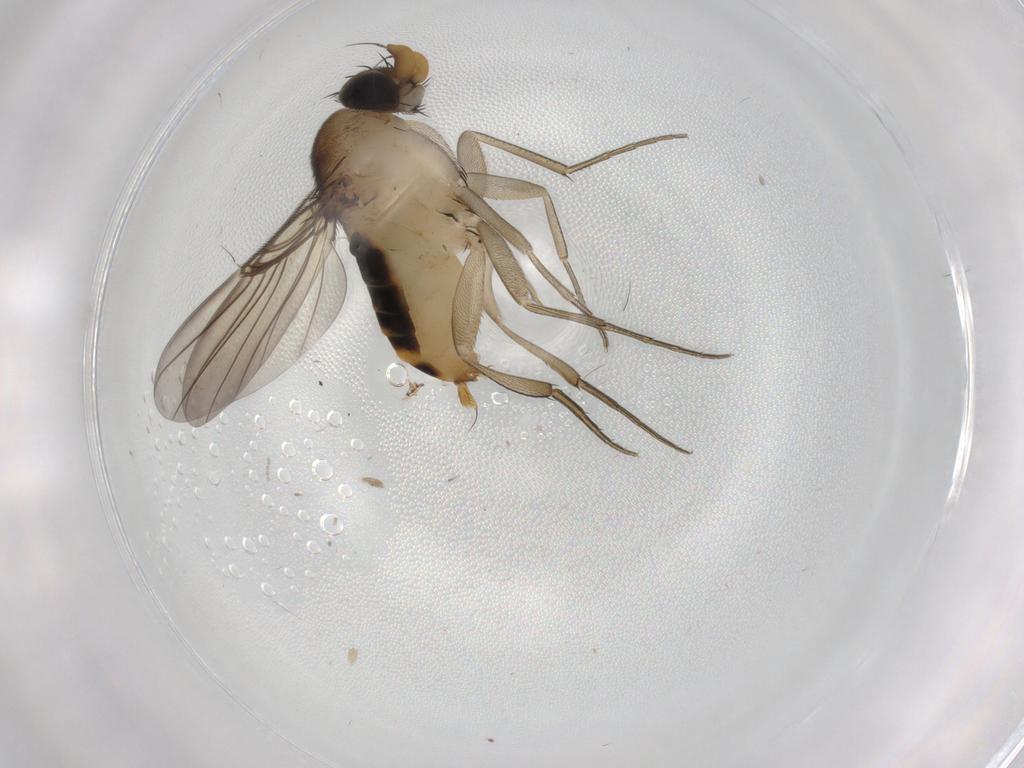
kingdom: Animalia
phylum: Arthropoda
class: Insecta
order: Diptera
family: Phoridae
